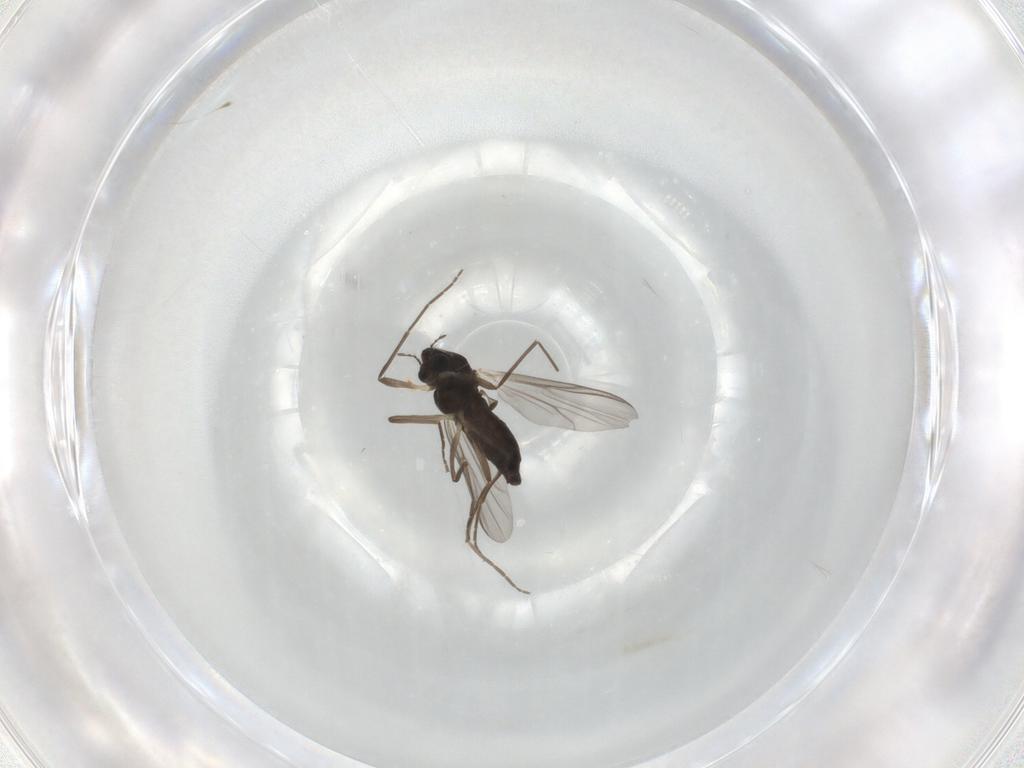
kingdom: Animalia
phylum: Arthropoda
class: Insecta
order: Diptera
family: Chironomidae
